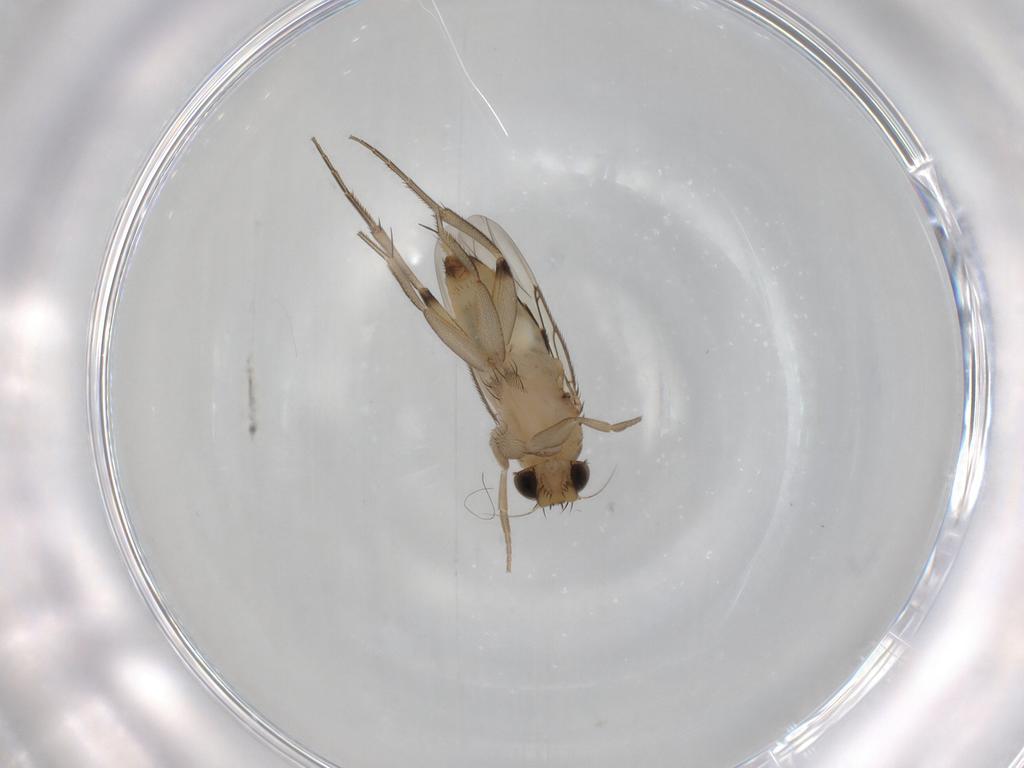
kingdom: Animalia
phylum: Arthropoda
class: Insecta
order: Diptera
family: Phoridae
